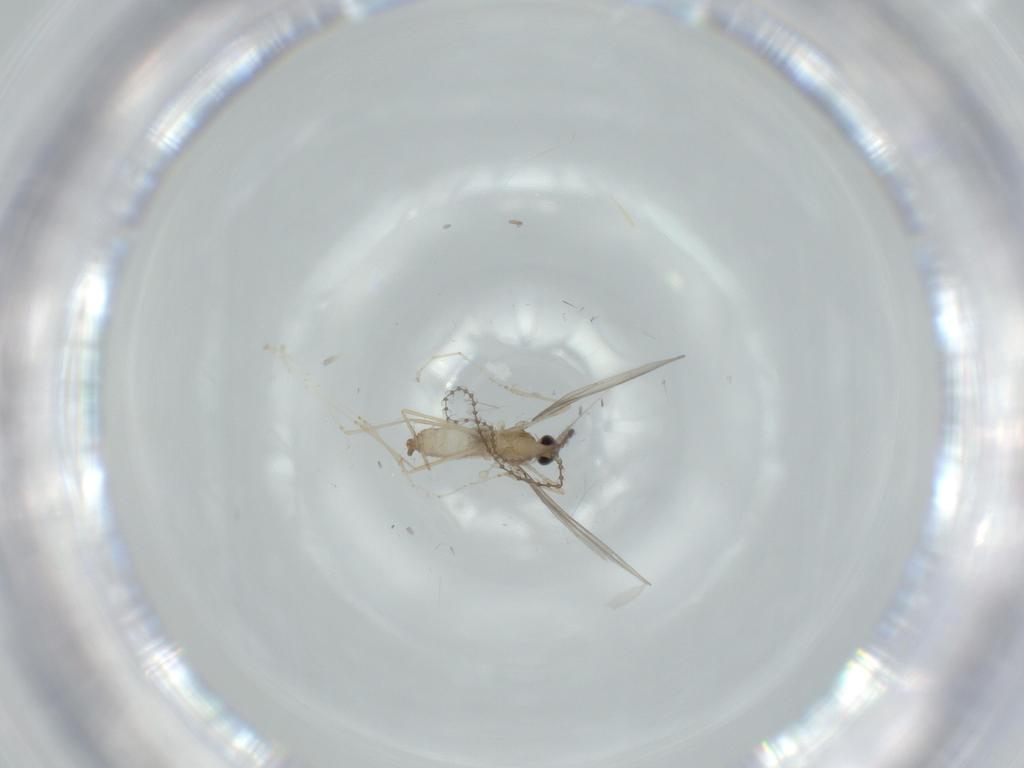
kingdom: Animalia
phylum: Arthropoda
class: Insecta
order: Diptera
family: Cecidomyiidae
